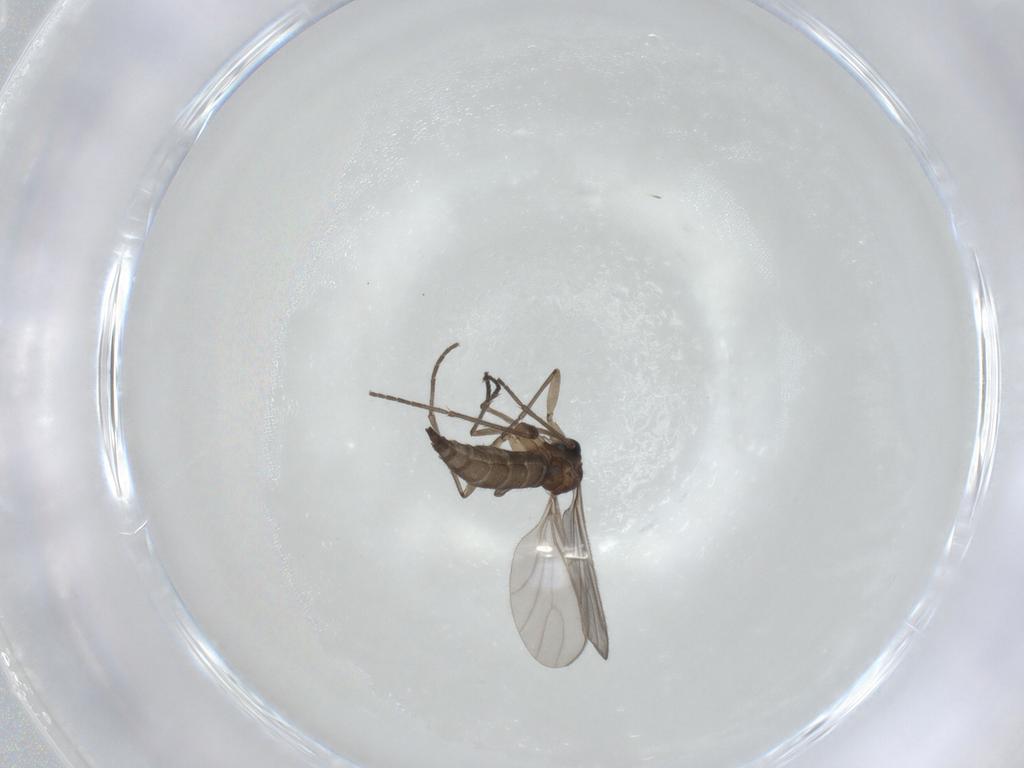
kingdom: Animalia
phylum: Arthropoda
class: Insecta
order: Diptera
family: Sciaridae
